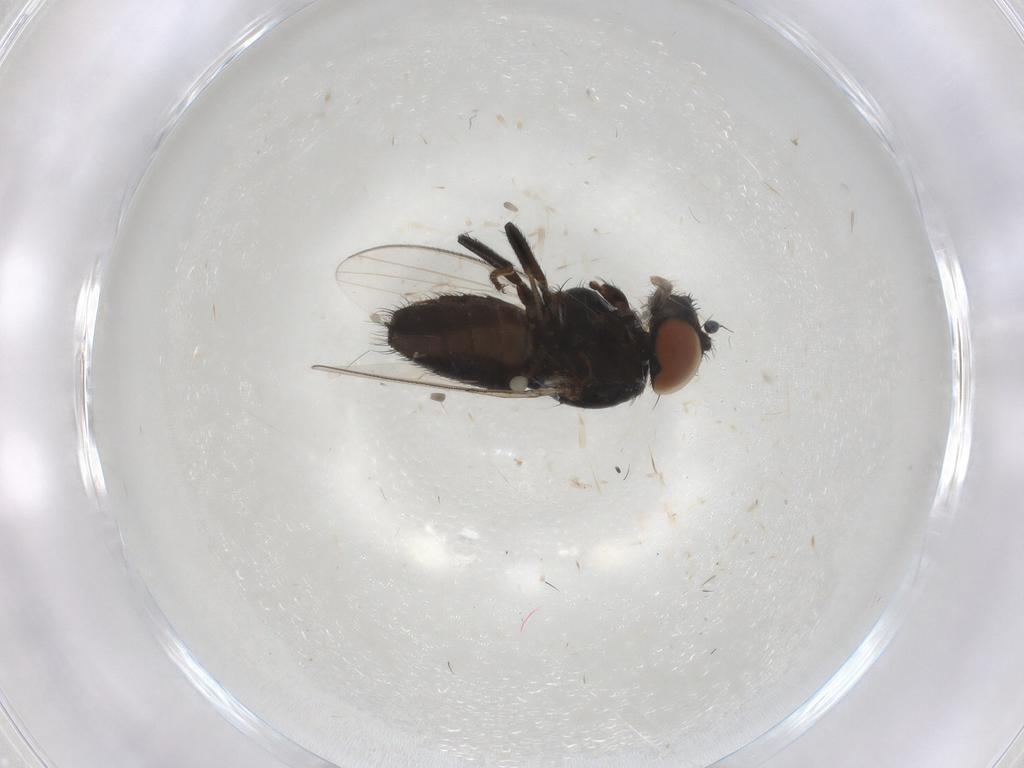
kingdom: Animalia
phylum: Arthropoda
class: Insecta
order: Diptera
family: Milichiidae
